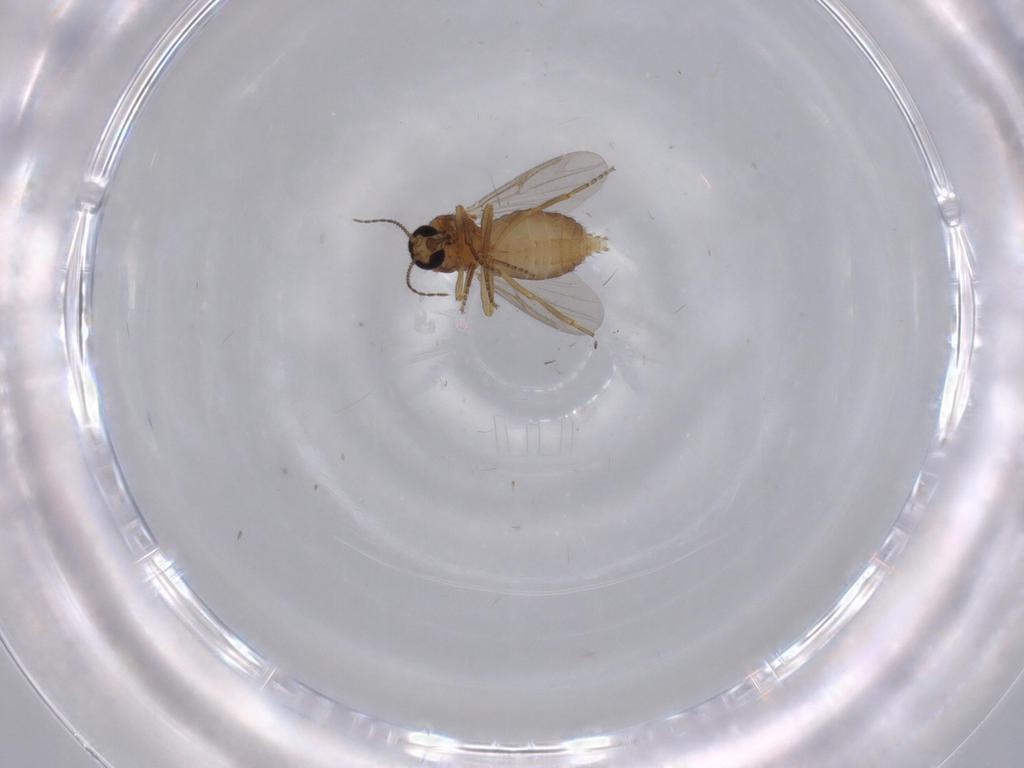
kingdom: Animalia
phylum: Arthropoda
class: Insecta
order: Diptera
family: Ceratopogonidae
